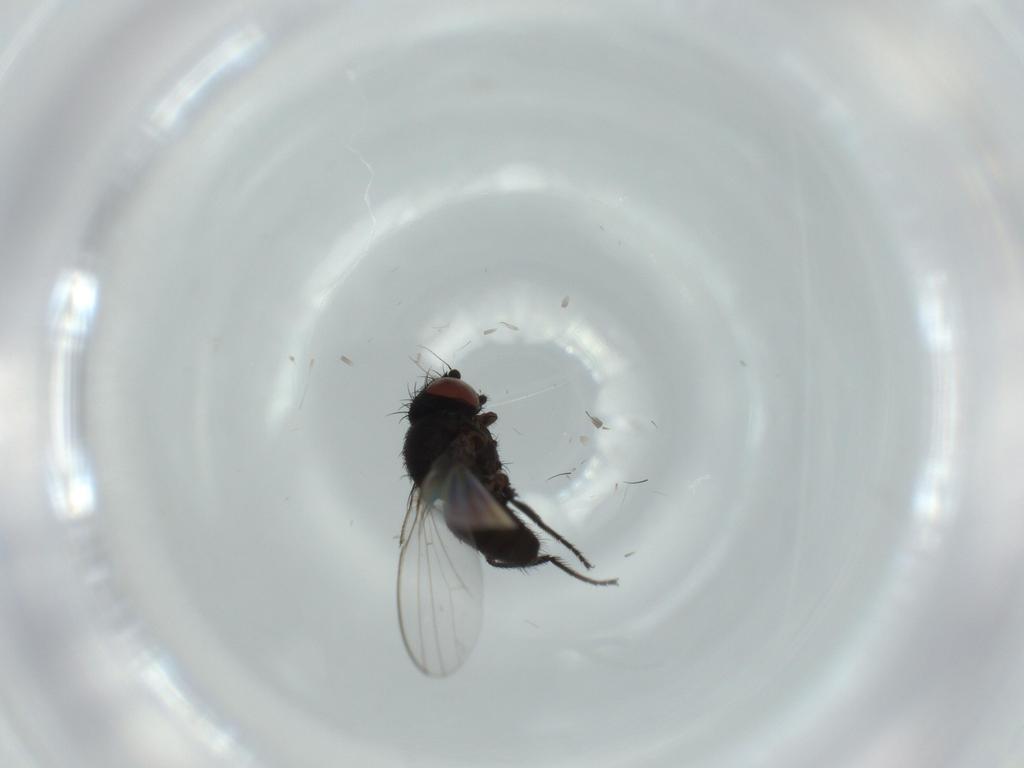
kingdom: Animalia
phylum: Arthropoda
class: Insecta
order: Diptera
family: Milichiidae
